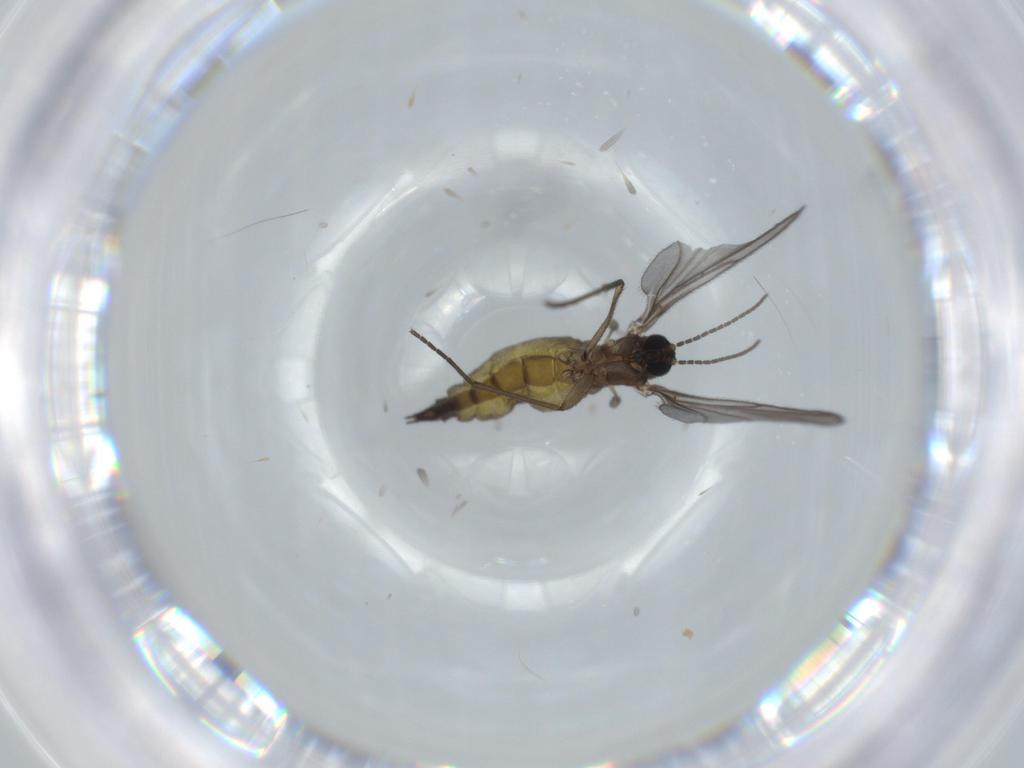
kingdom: Animalia
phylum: Arthropoda
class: Insecta
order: Diptera
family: Sciaridae
